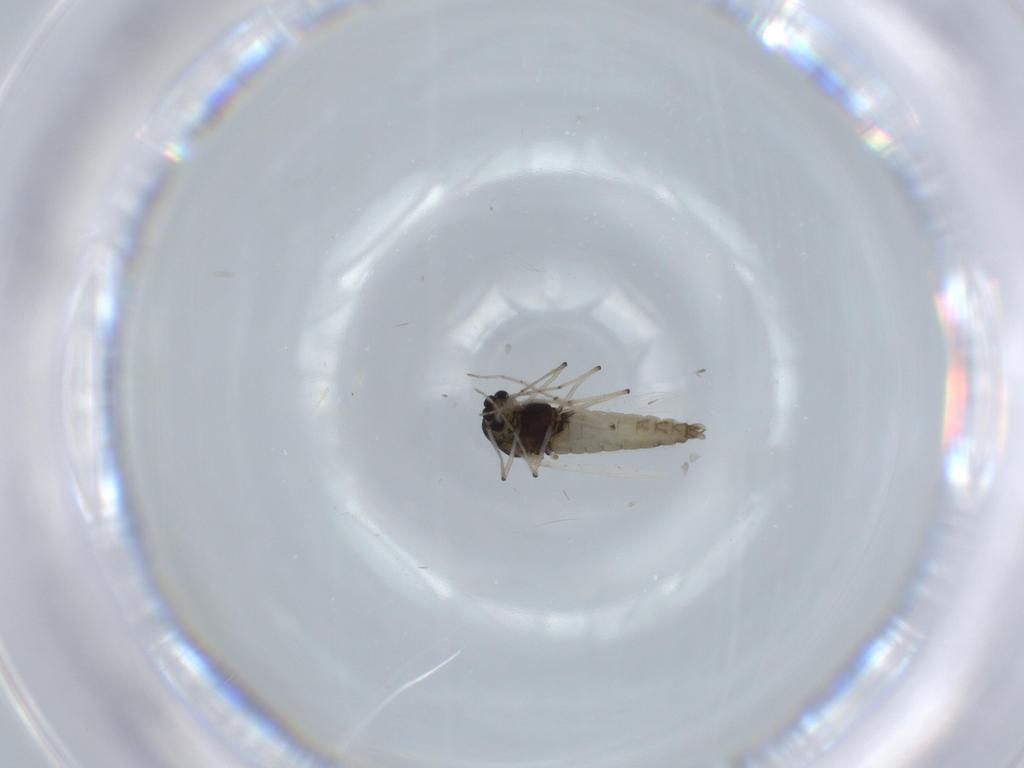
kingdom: Animalia
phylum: Arthropoda
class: Insecta
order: Diptera
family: Chironomidae
